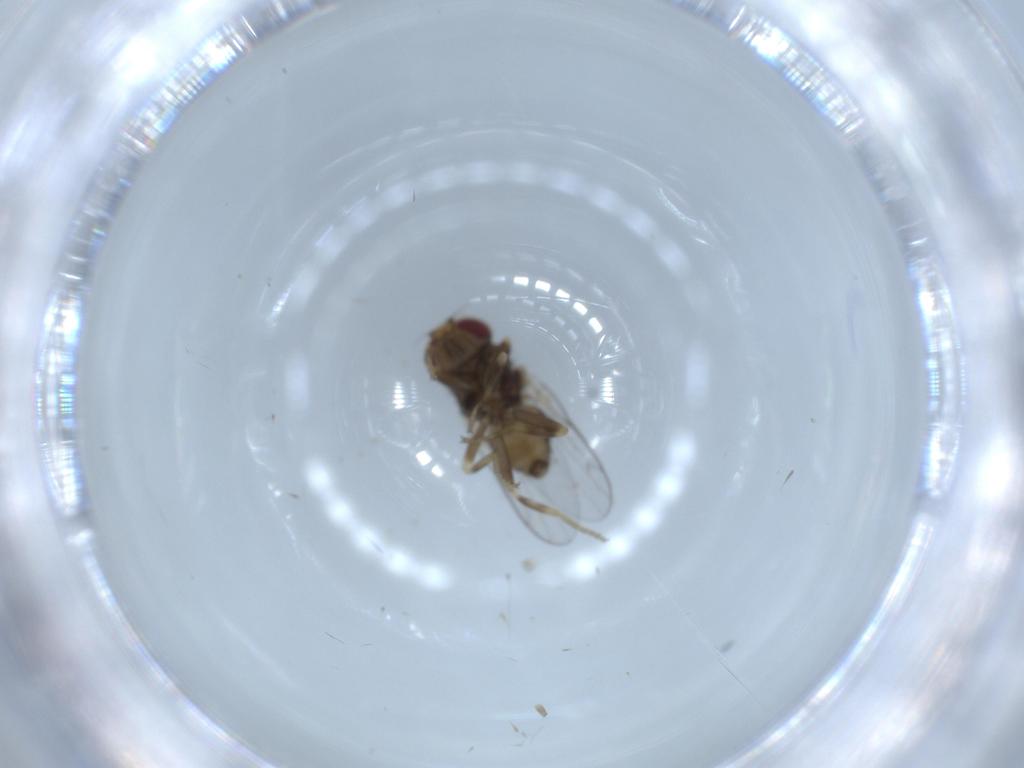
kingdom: Animalia
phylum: Arthropoda
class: Insecta
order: Diptera
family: Chloropidae
